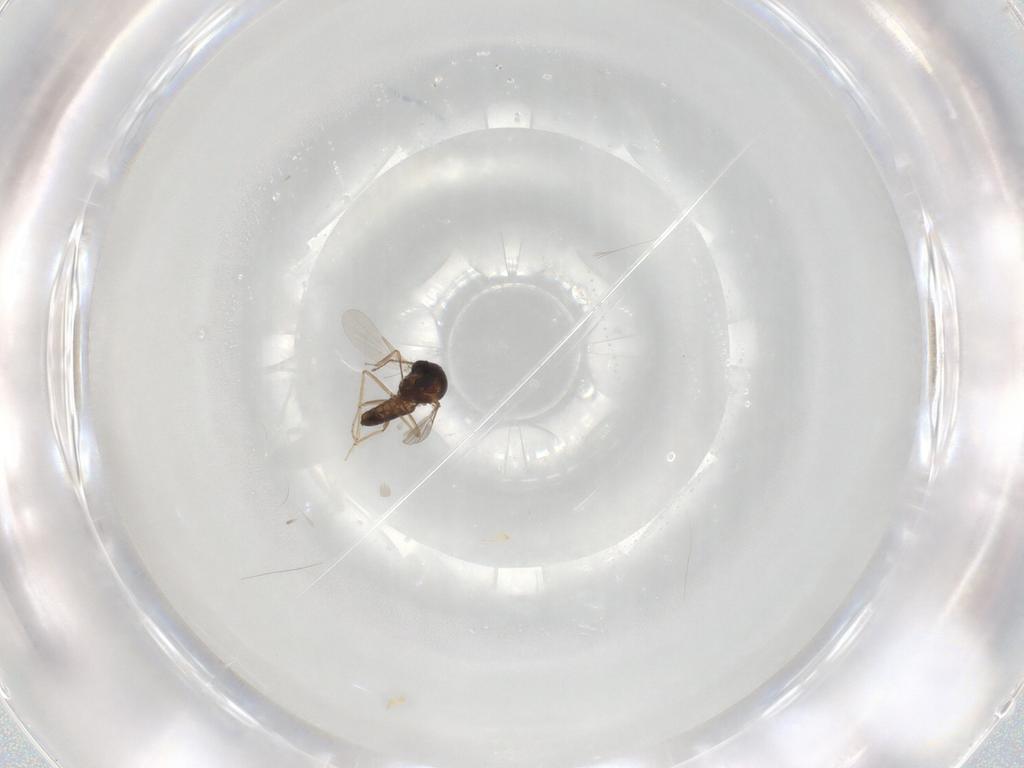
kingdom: Animalia
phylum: Arthropoda
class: Insecta
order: Diptera
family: Ceratopogonidae
